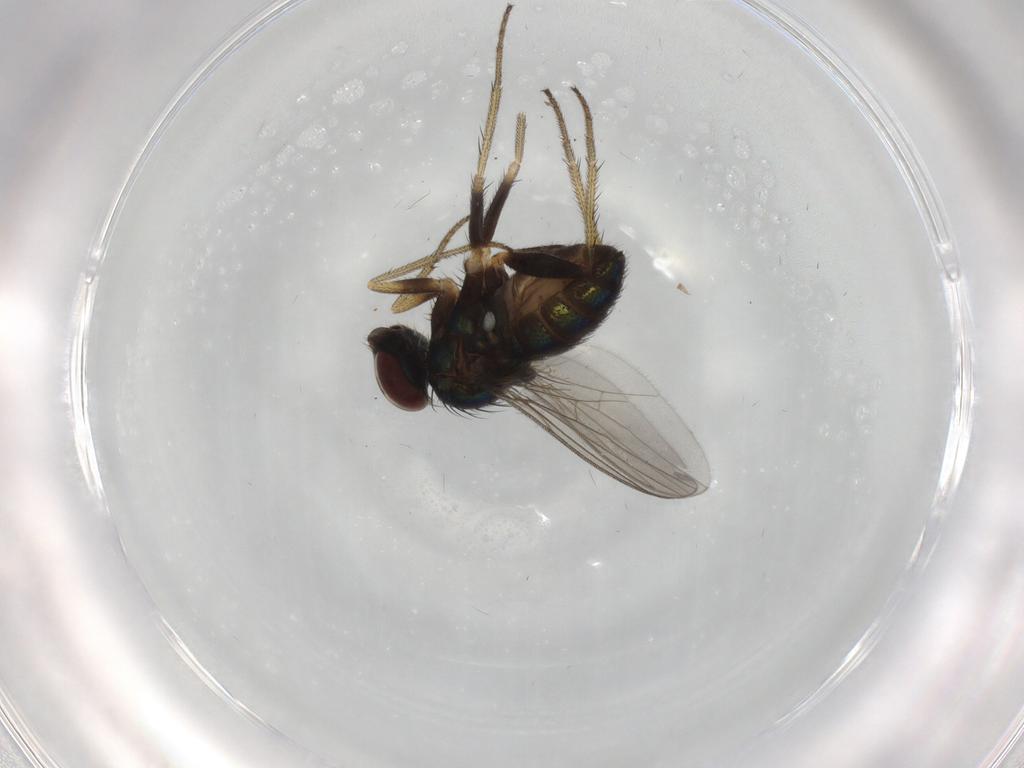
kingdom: Animalia
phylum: Arthropoda
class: Insecta
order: Diptera
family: Dolichopodidae
